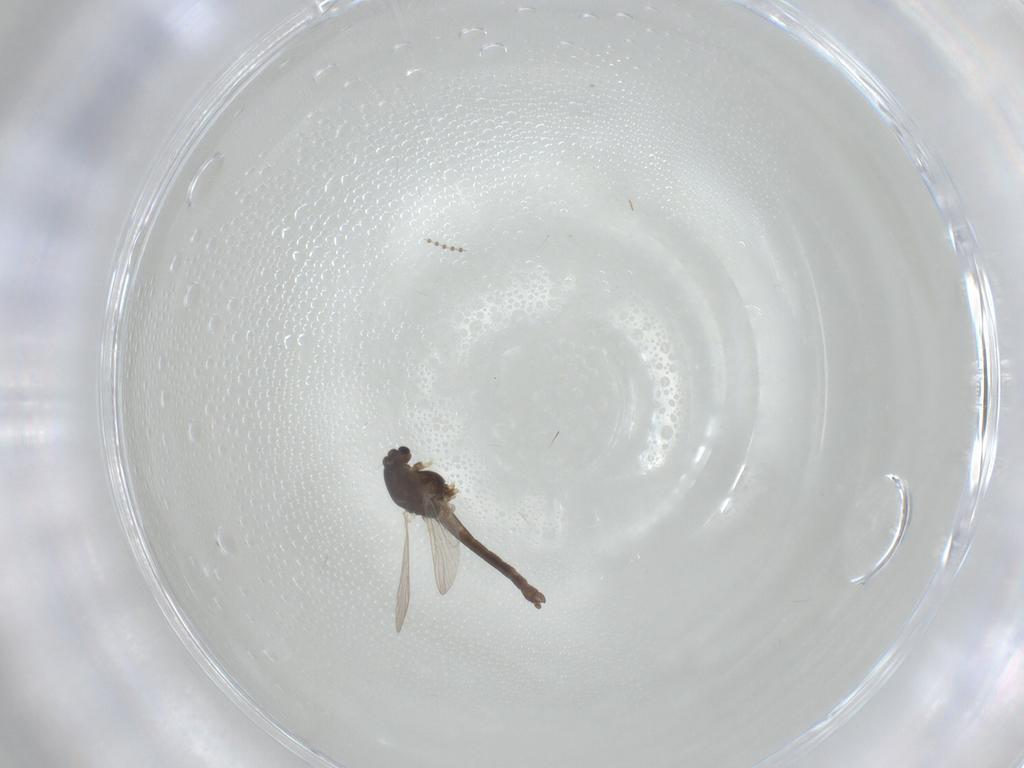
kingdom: Animalia
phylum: Arthropoda
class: Insecta
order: Diptera
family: Psychodidae
